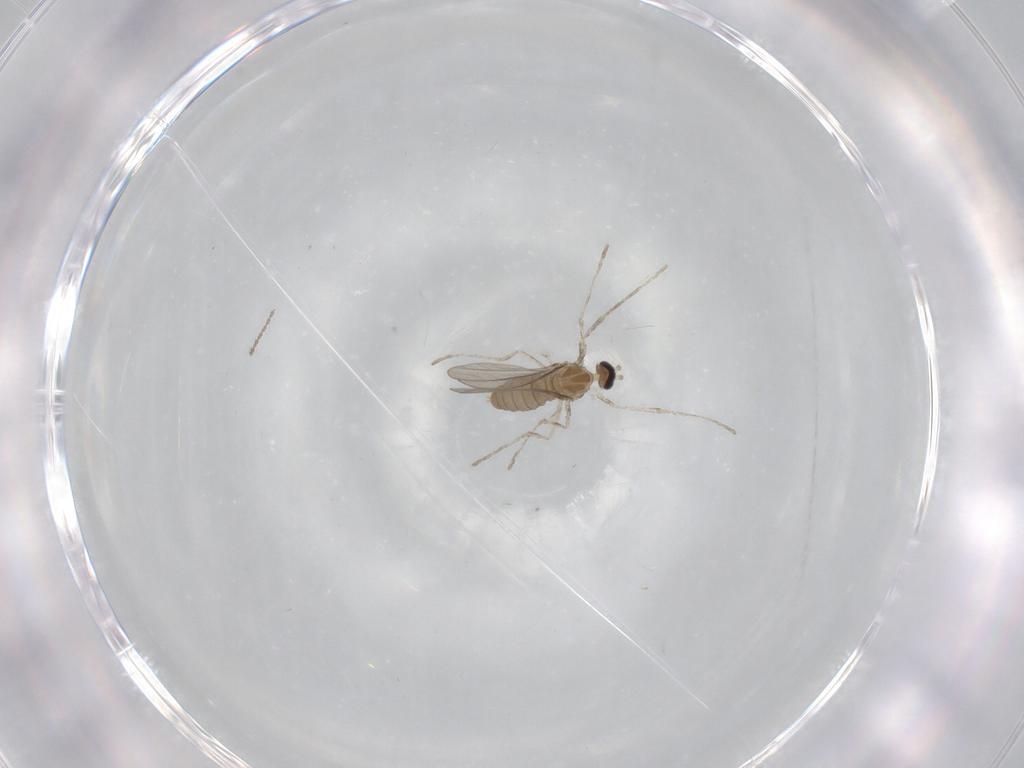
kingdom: Animalia
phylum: Arthropoda
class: Insecta
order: Diptera
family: Cecidomyiidae
